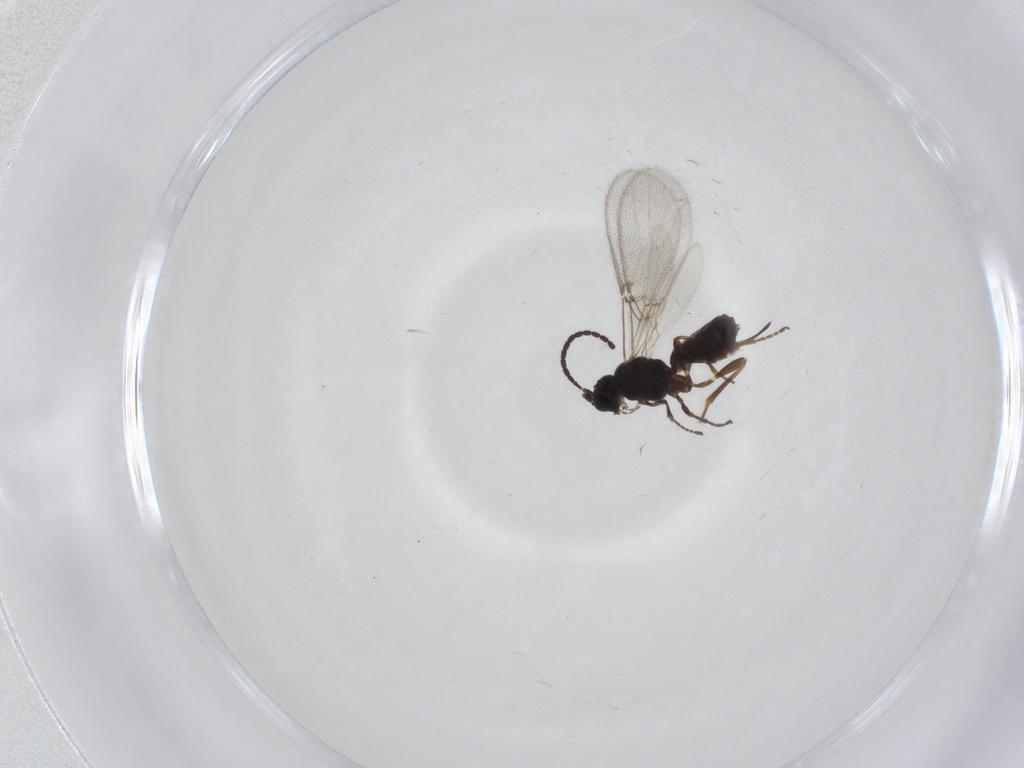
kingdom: Animalia
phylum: Arthropoda
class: Insecta
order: Hymenoptera
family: Braconidae
